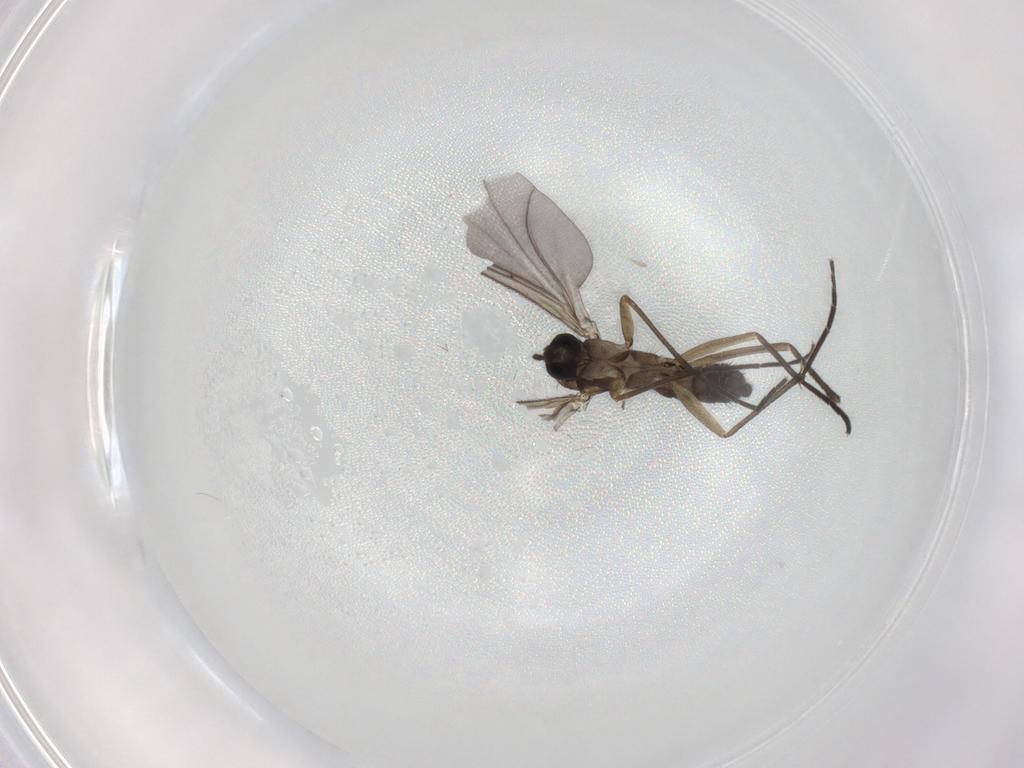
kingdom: Animalia
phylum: Arthropoda
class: Insecta
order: Diptera
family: Sciaridae
